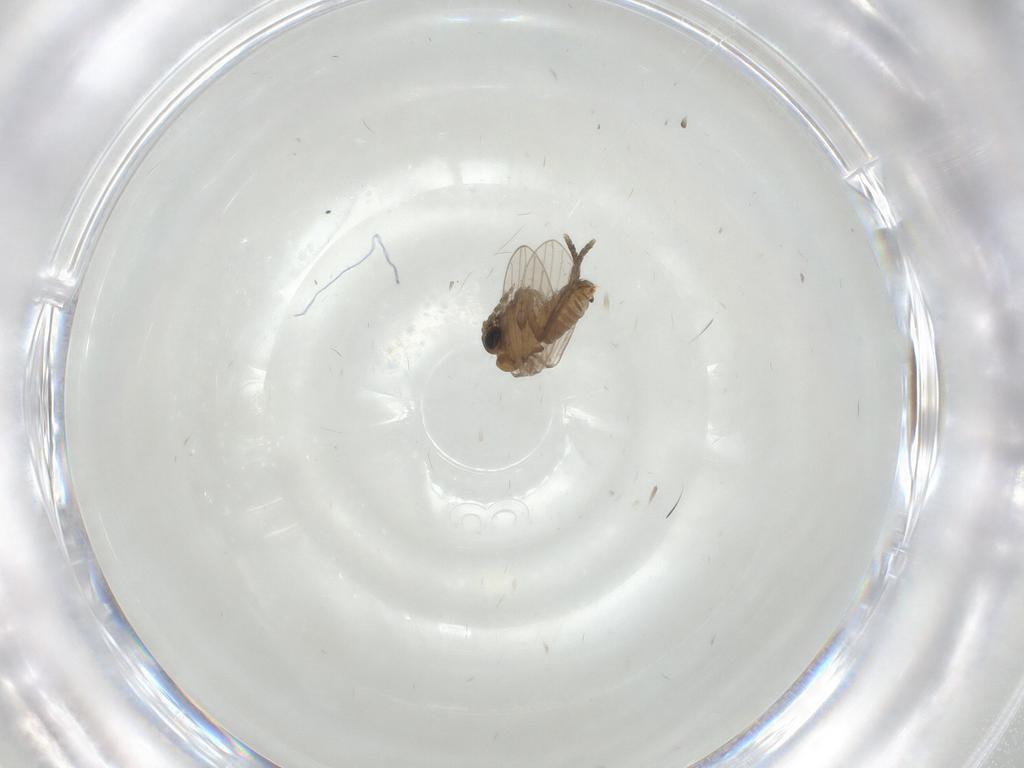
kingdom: Animalia
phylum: Arthropoda
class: Insecta
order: Diptera
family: Psychodidae
